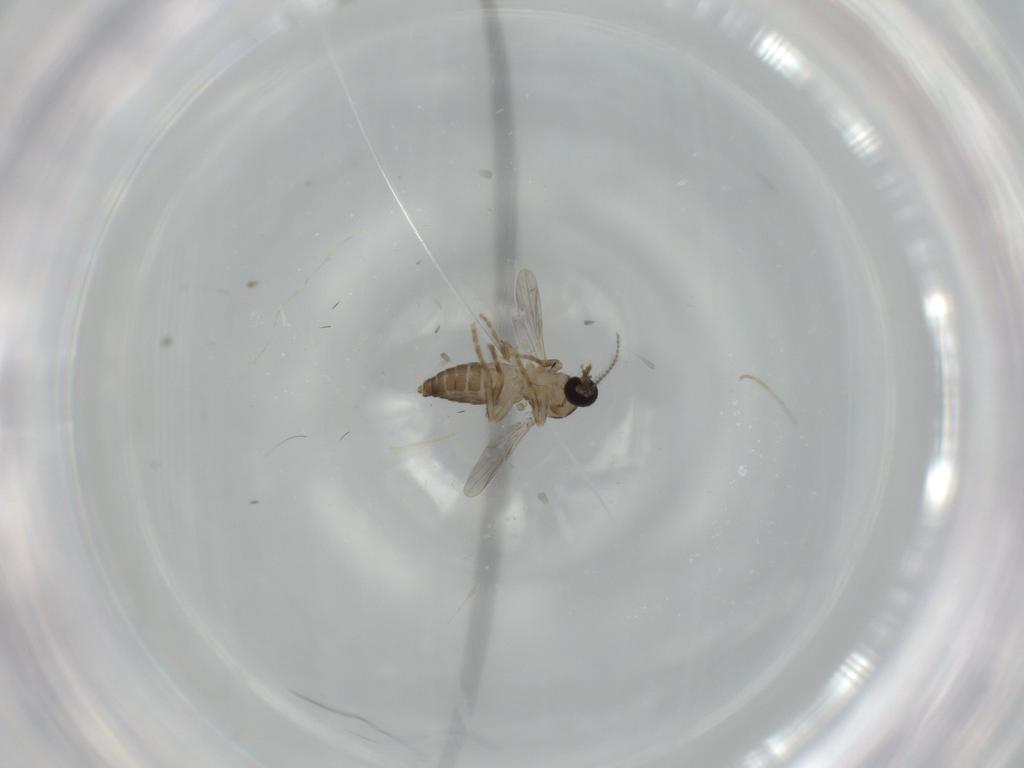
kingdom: Animalia
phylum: Arthropoda
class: Insecta
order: Diptera
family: Ceratopogonidae
